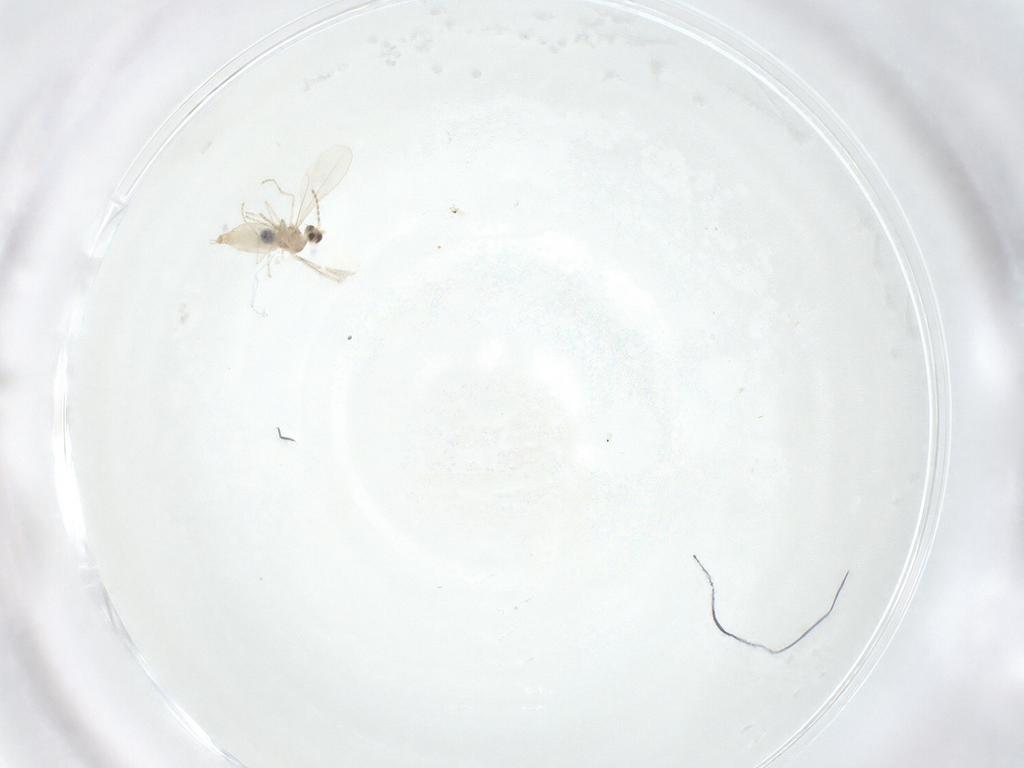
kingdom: Animalia
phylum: Arthropoda
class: Insecta
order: Diptera
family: Cecidomyiidae
